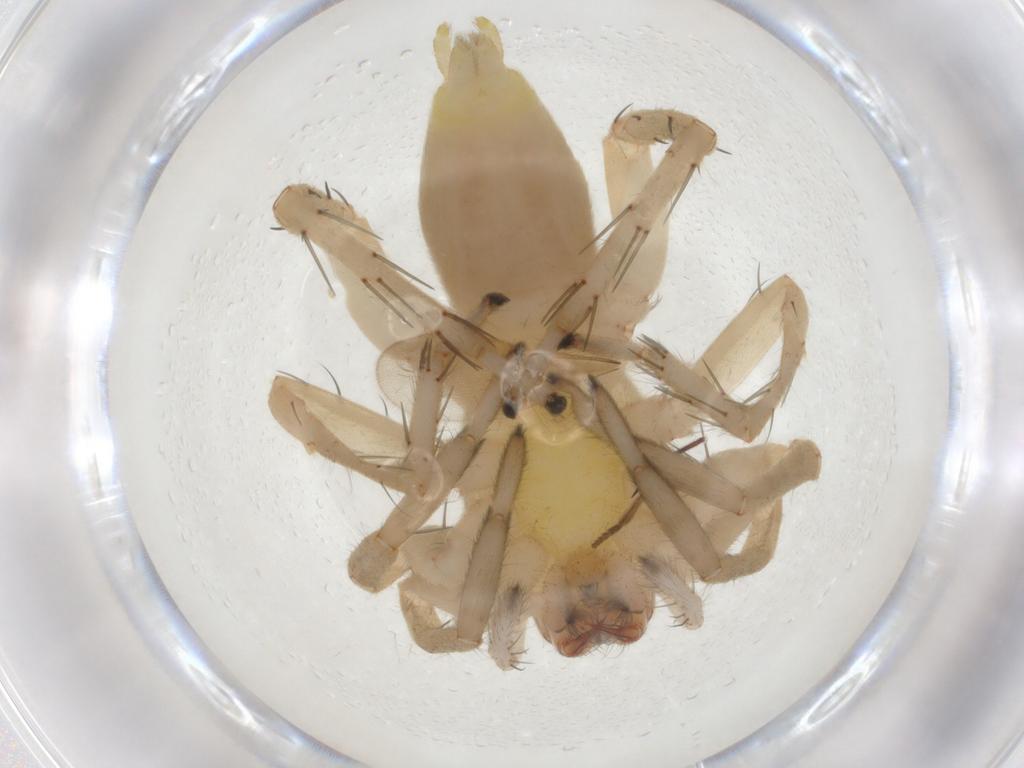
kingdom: Animalia
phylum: Arthropoda
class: Arachnida
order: Araneae
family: Clubionidae
